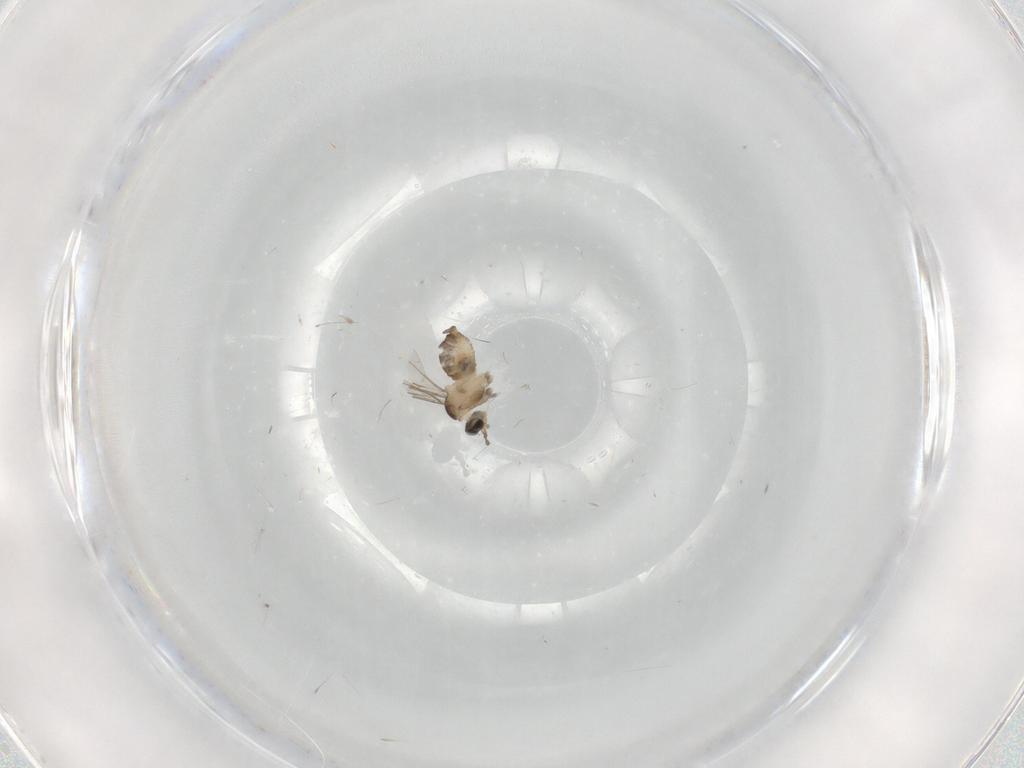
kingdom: Animalia
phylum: Arthropoda
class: Insecta
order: Diptera
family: Cecidomyiidae
